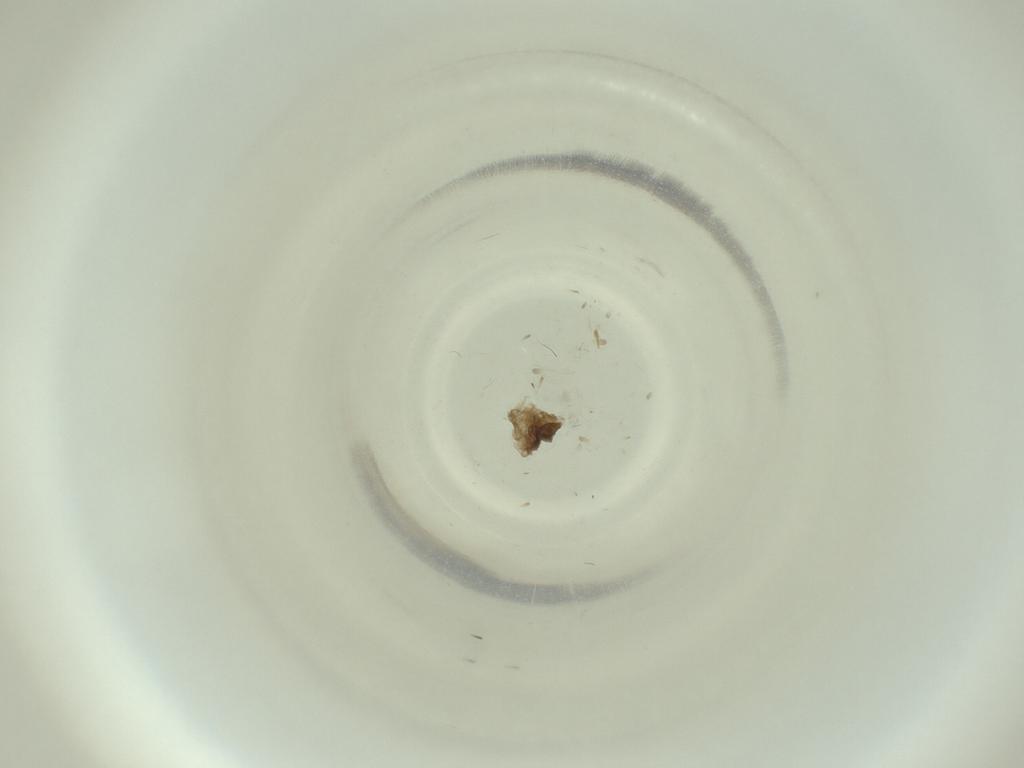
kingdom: Animalia
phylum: Arthropoda
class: Insecta
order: Diptera
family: Cecidomyiidae
